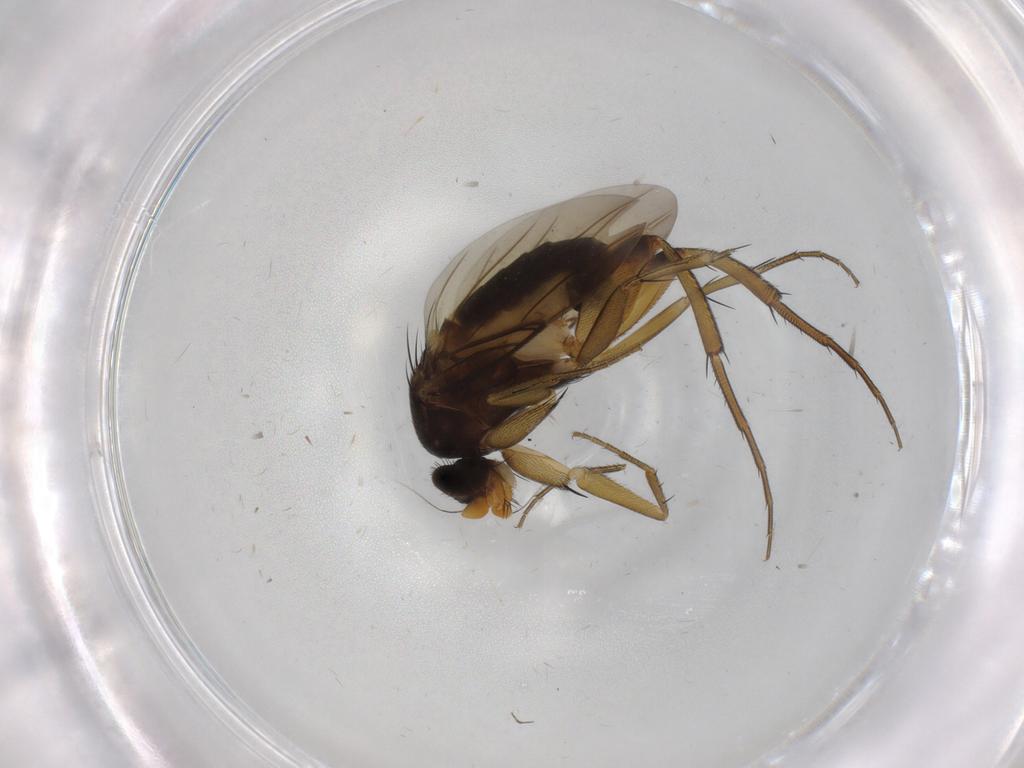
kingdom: Animalia
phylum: Arthropoda
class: Insecta
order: Diptera
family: Phoridae
